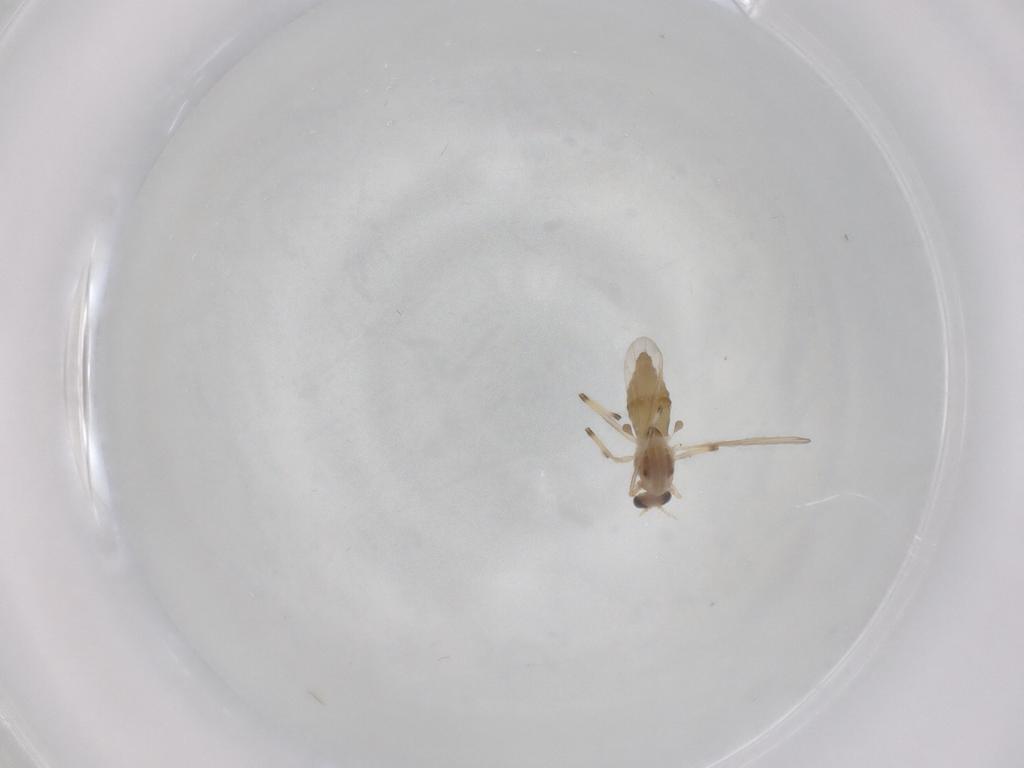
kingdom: Animalia
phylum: Arthropoda
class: Insecta
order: Diptera
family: Chironomidae
